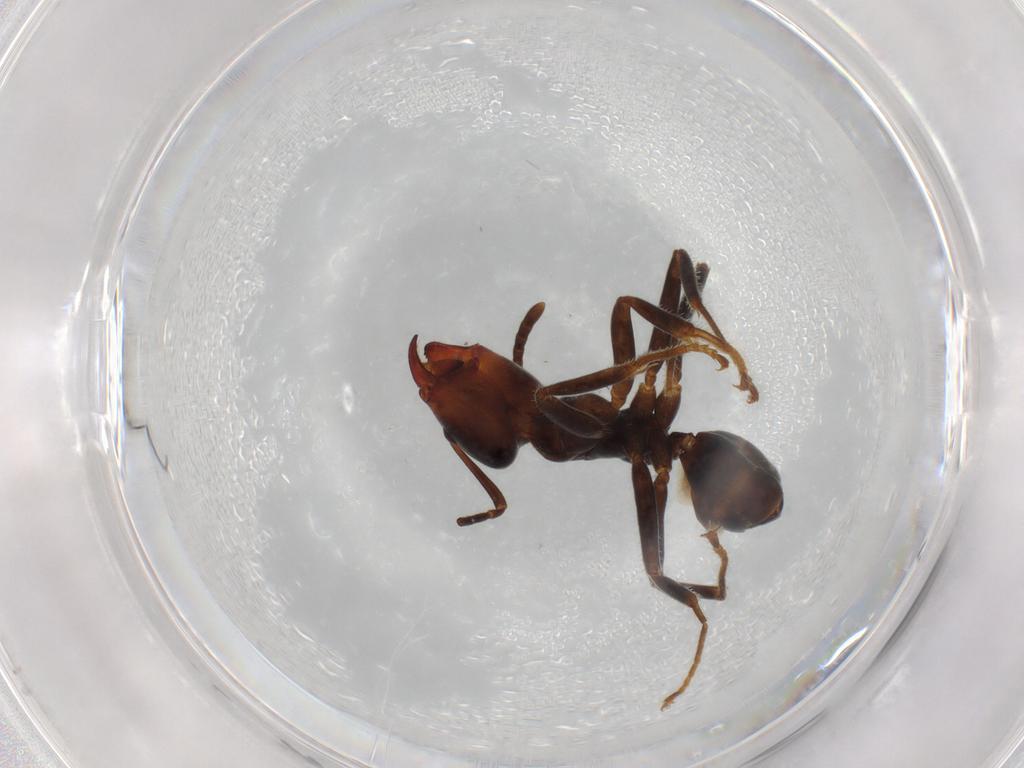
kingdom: Animalia
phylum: Arthropoda
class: Insecta
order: Hymenoptera
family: Formicidae
